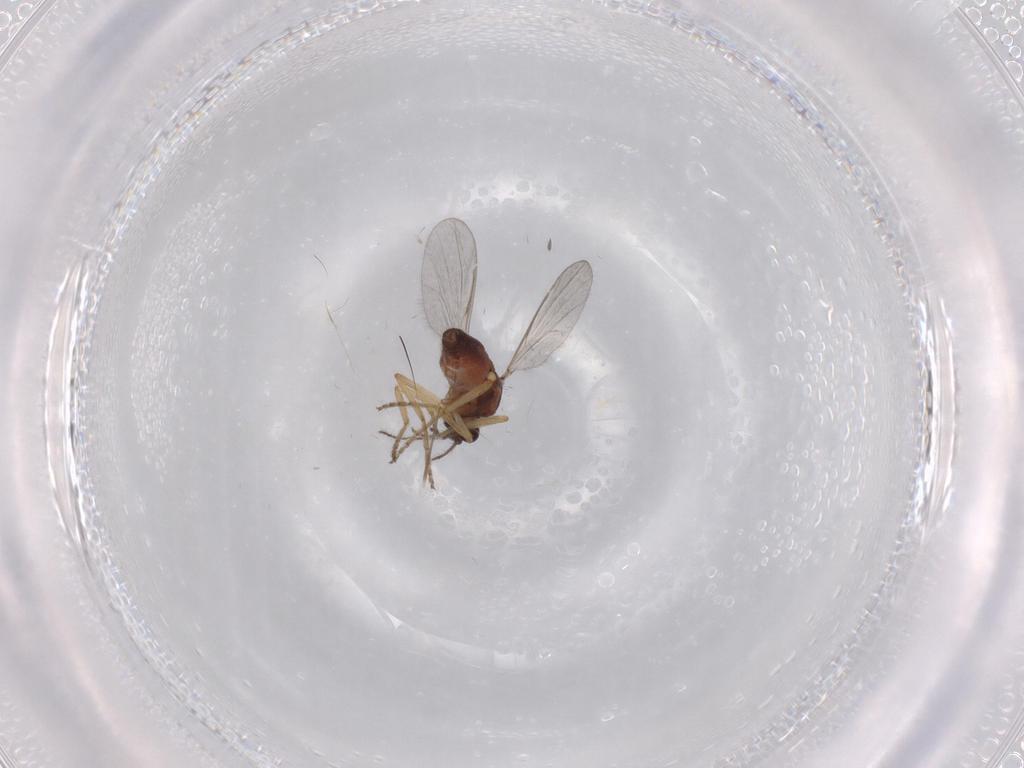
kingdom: Animalia
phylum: Arthropoda
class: Insecta
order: Diptera
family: Ceratopogonidae
